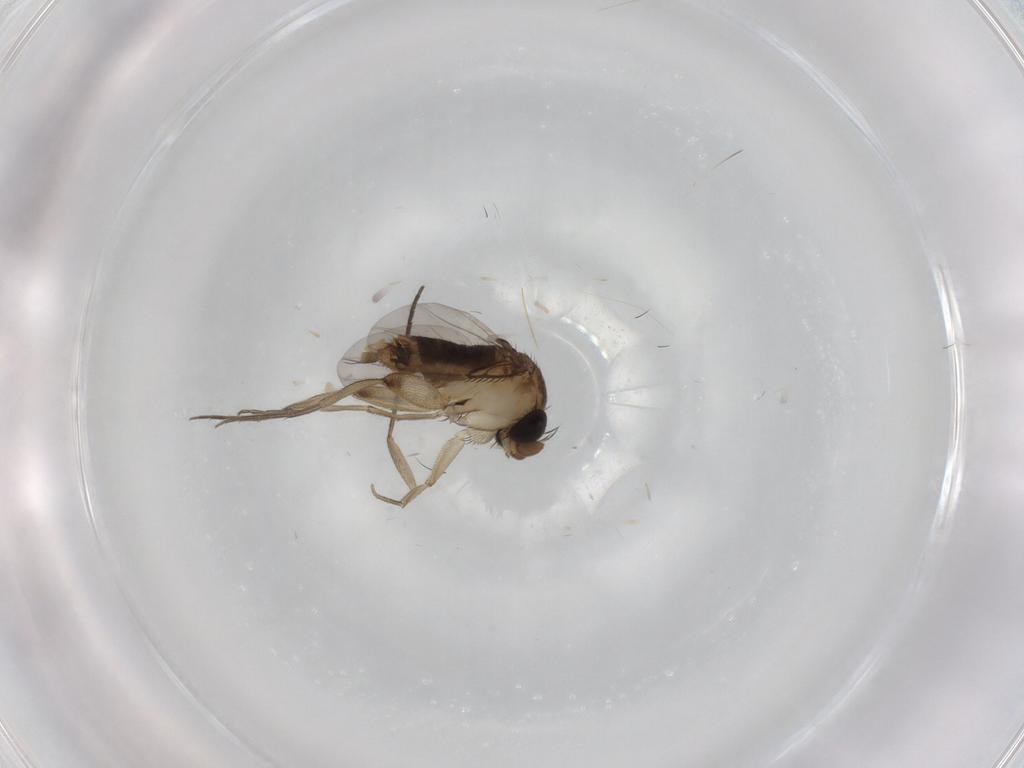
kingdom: Animalia
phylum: Arthropoda
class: Insecta
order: Diptera
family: Phoridae
